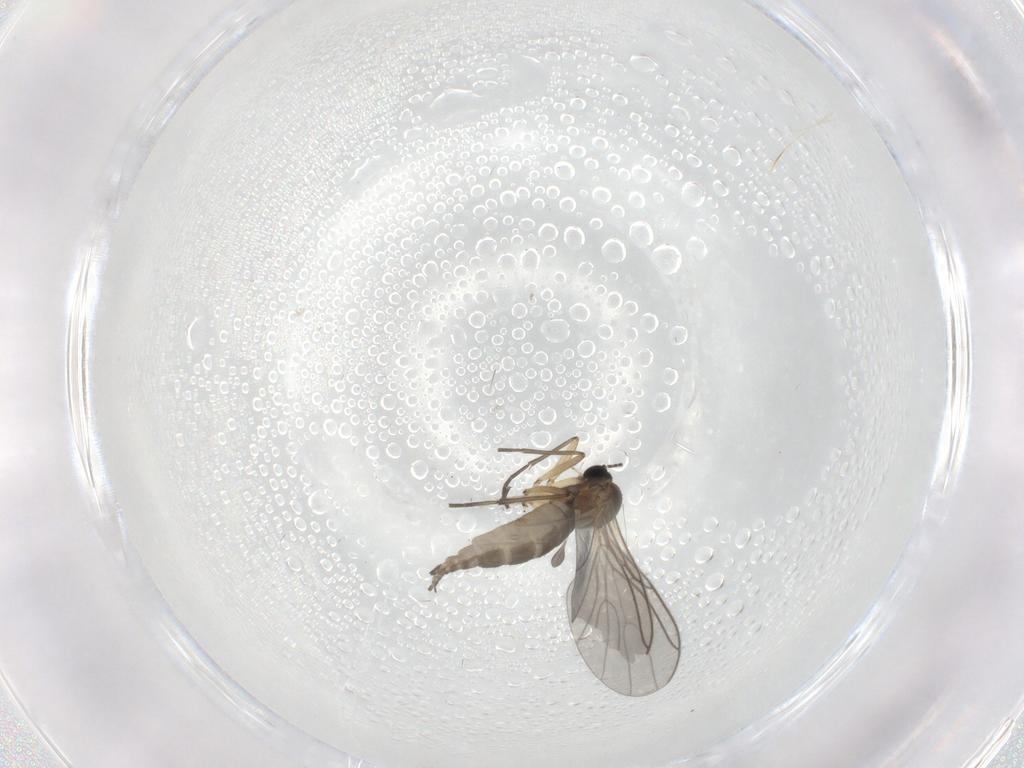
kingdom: Animalia
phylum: Arthropoda
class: Insecta
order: Diptera
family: Sciaridae
